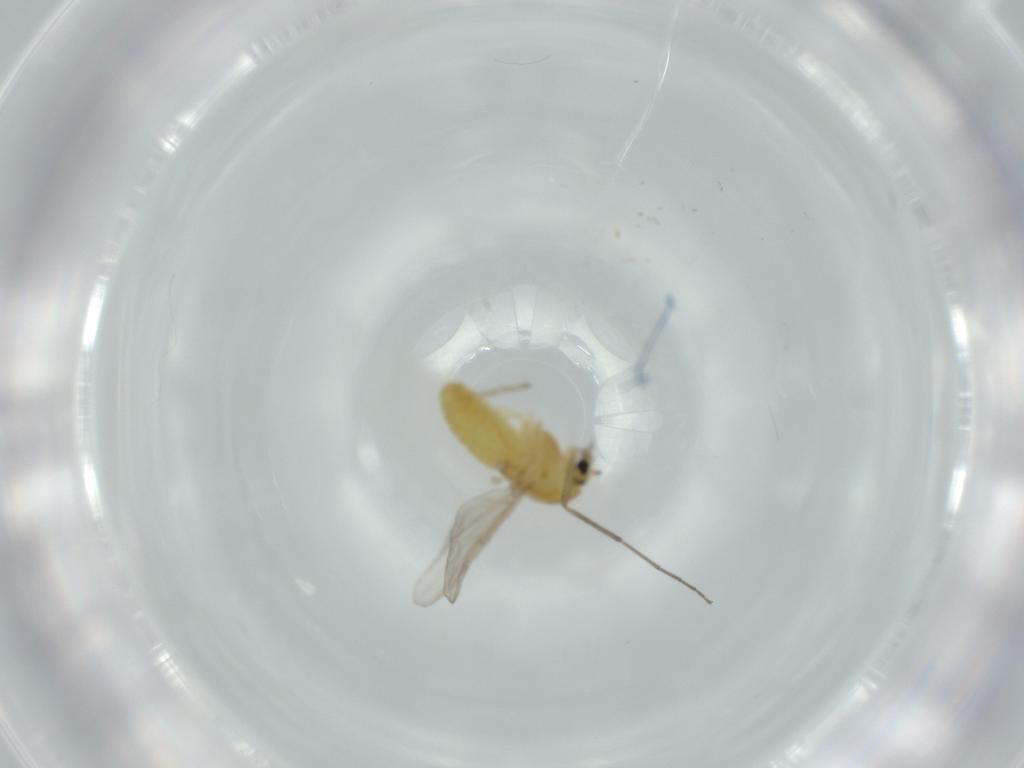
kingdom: Animalia
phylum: Arthropoda
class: Insecta
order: Diptera
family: Chironomidae
